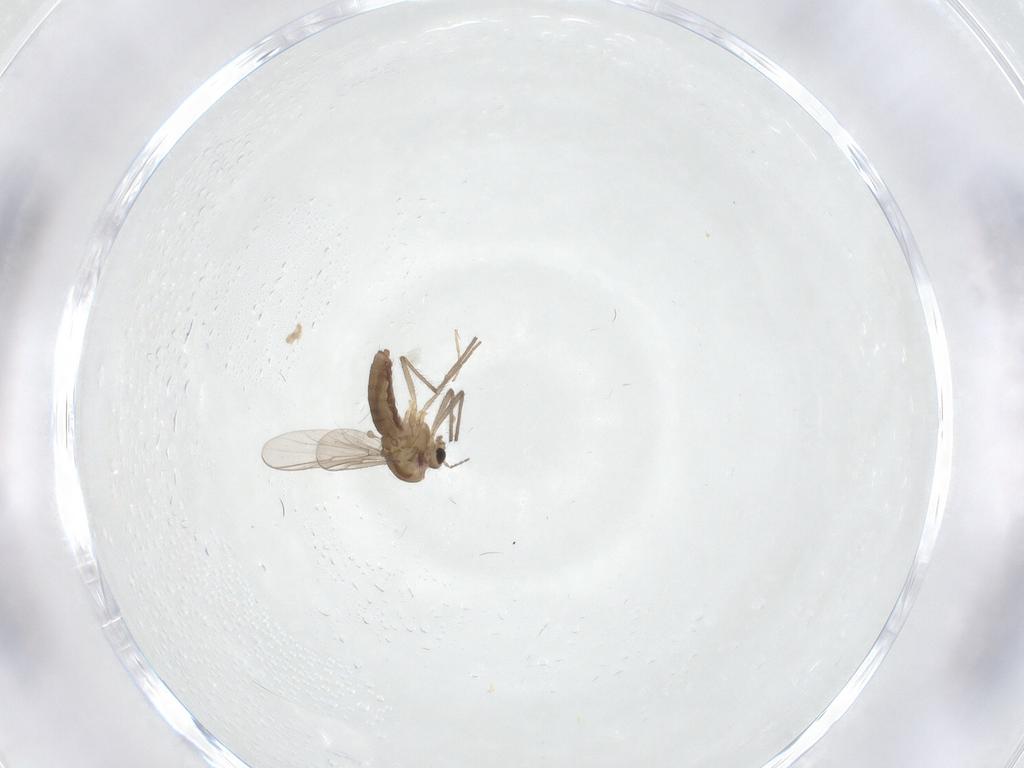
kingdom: Animalia
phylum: Arthropoda
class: Insecta
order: Diptera
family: Chironomidae
